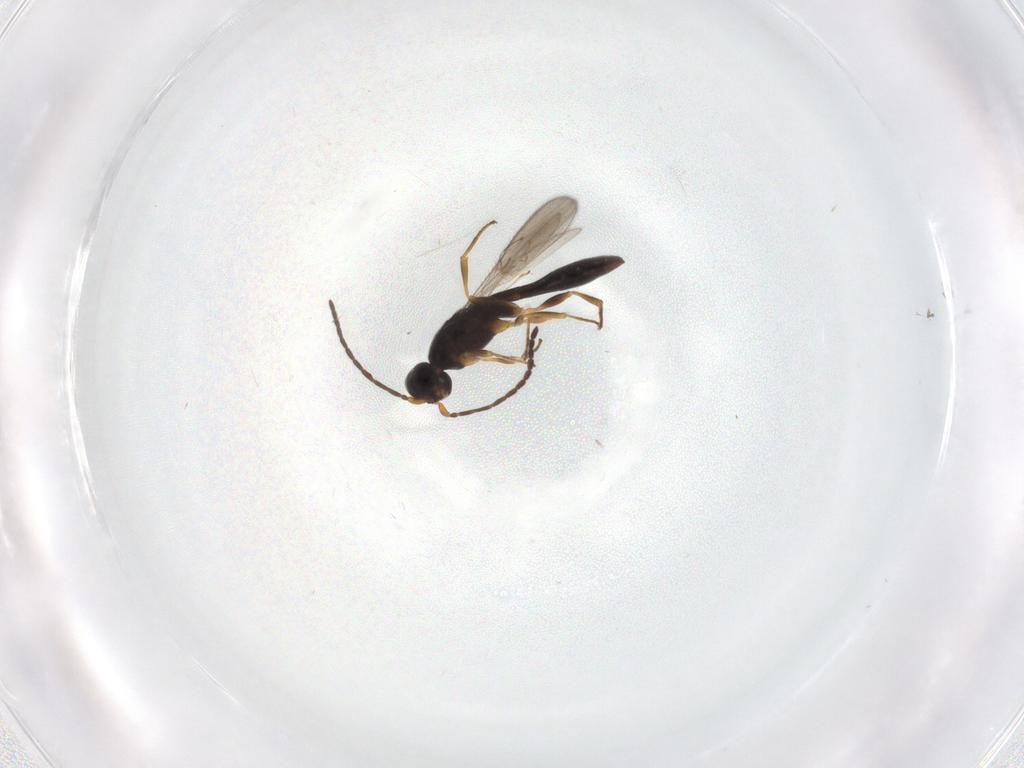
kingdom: Animalia
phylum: Arthropoda
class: Insecta
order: Hymenoptera
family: Scelionidae
